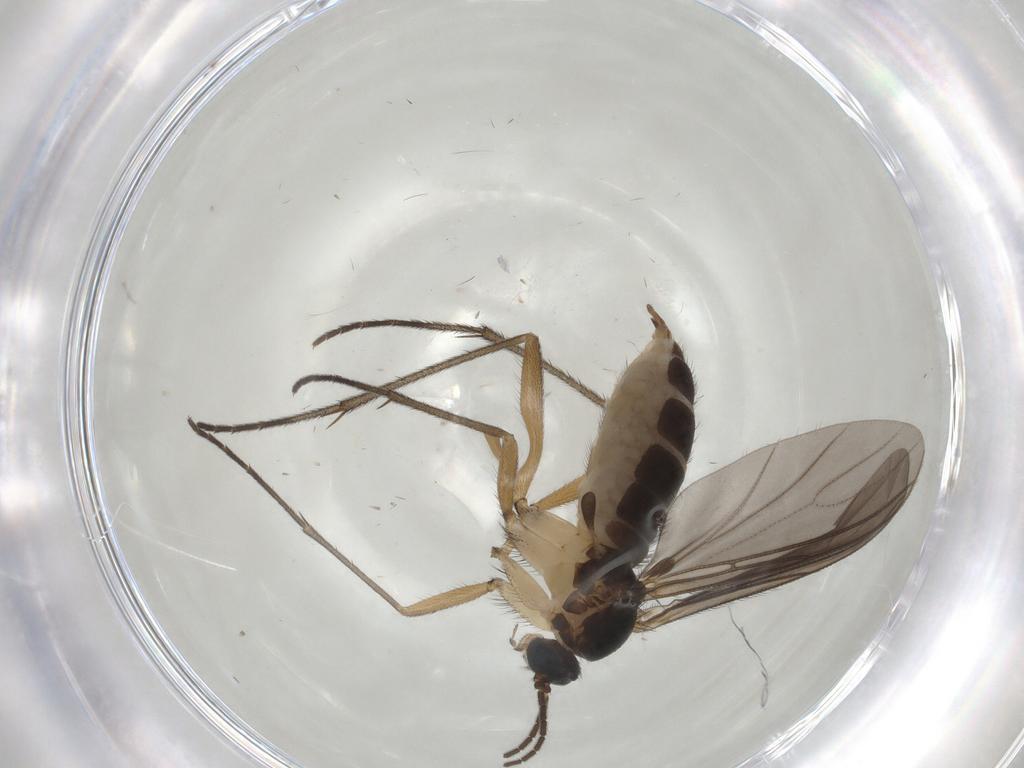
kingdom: Animalia
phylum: Arthropoda
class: Insecta
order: Diptera
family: Sciaridae
